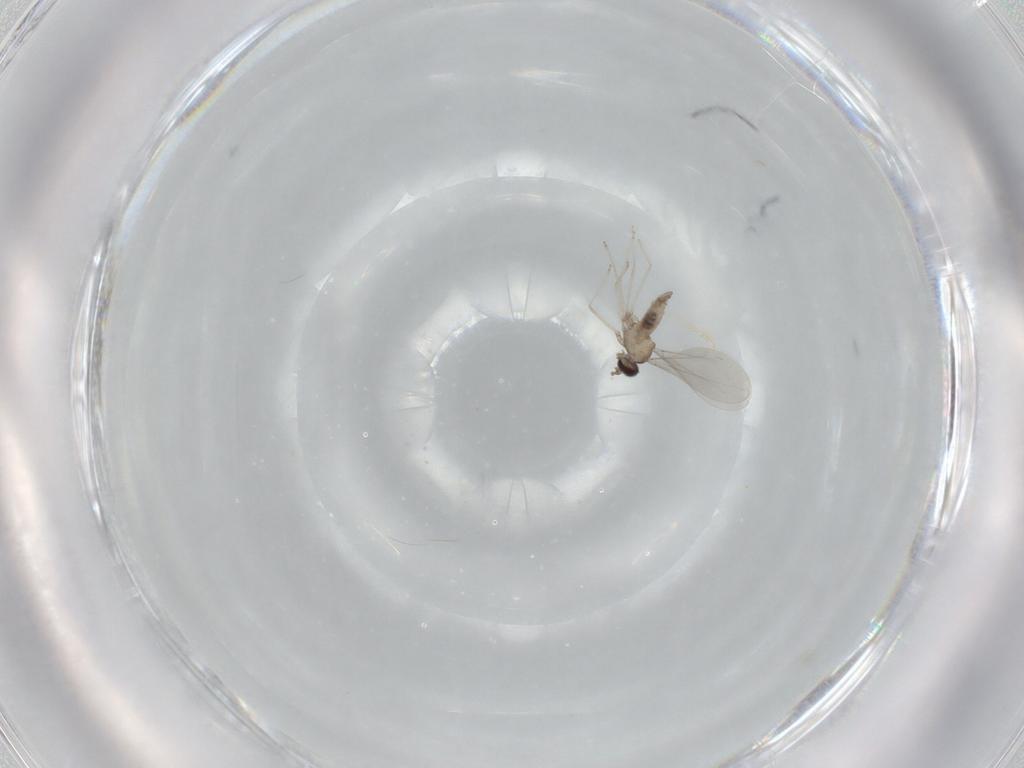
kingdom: Animalia
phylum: Arthropoda
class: Insecta
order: Diptera
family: Cecidomyiidae
